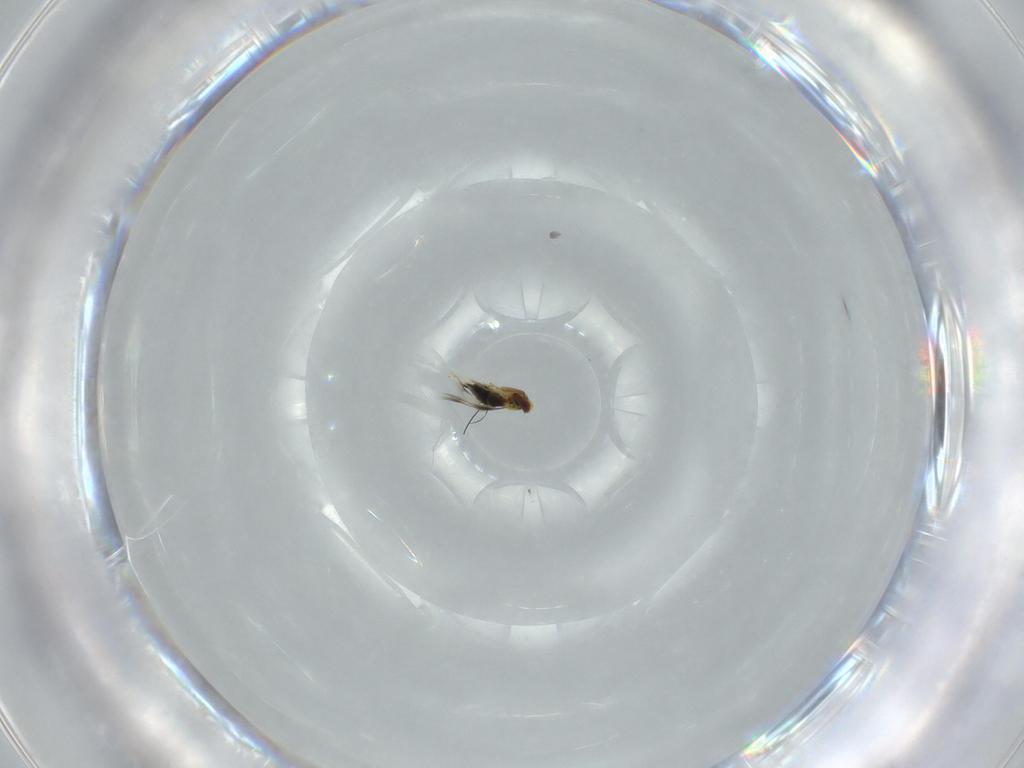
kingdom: Animalia
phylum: Arthropoda
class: Insecta
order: Hymenoptera
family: Signiphoridae
